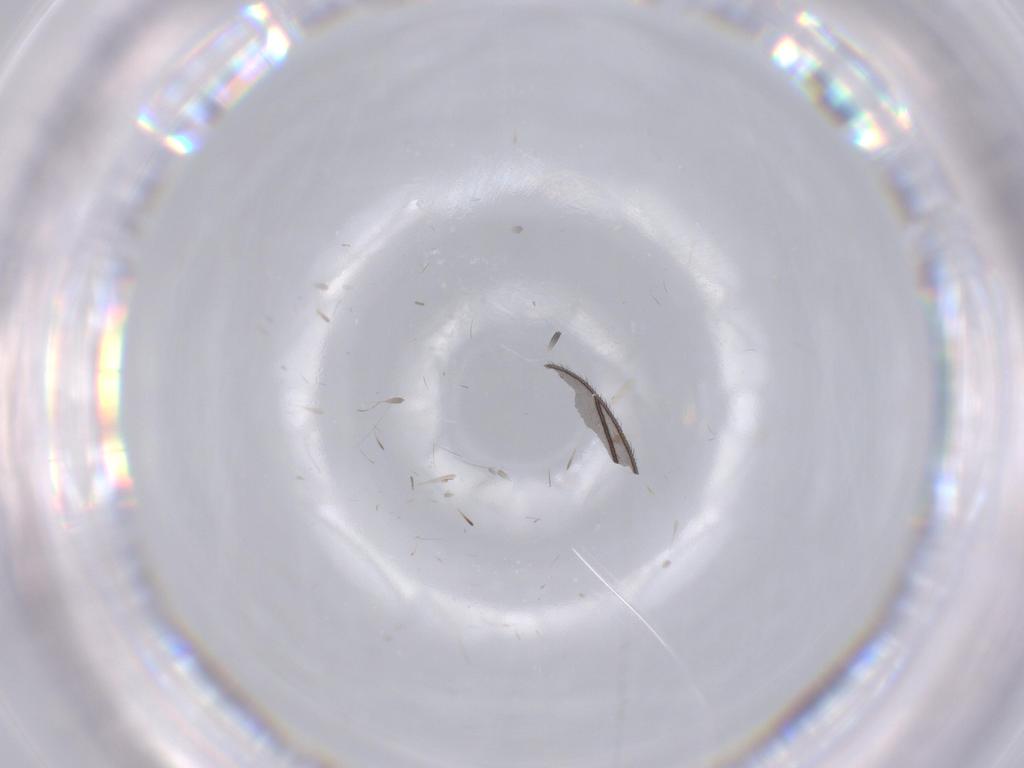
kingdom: Animalia
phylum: Arthropoda
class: Insecta
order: Diptera
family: Sciaridae
